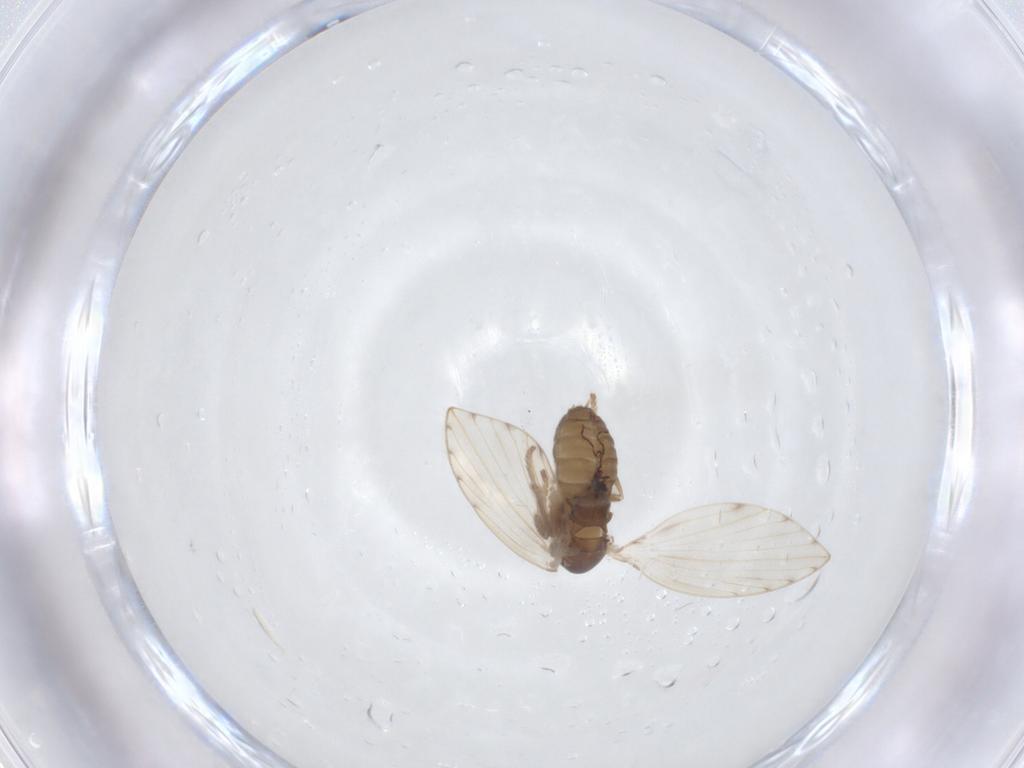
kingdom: Animalia
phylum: Arthropoda
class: Insecta
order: Diptera
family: Psychodidae
